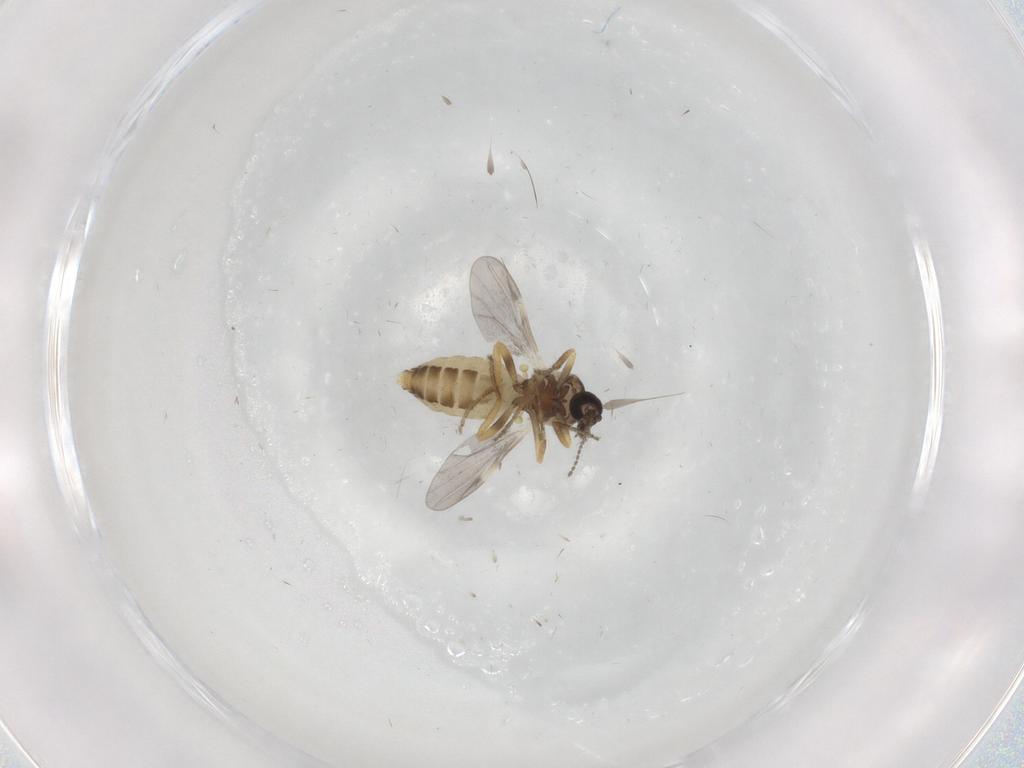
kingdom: Animalia
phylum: Arthropoda
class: Insecta
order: Diptera
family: Ceratopogonidae
